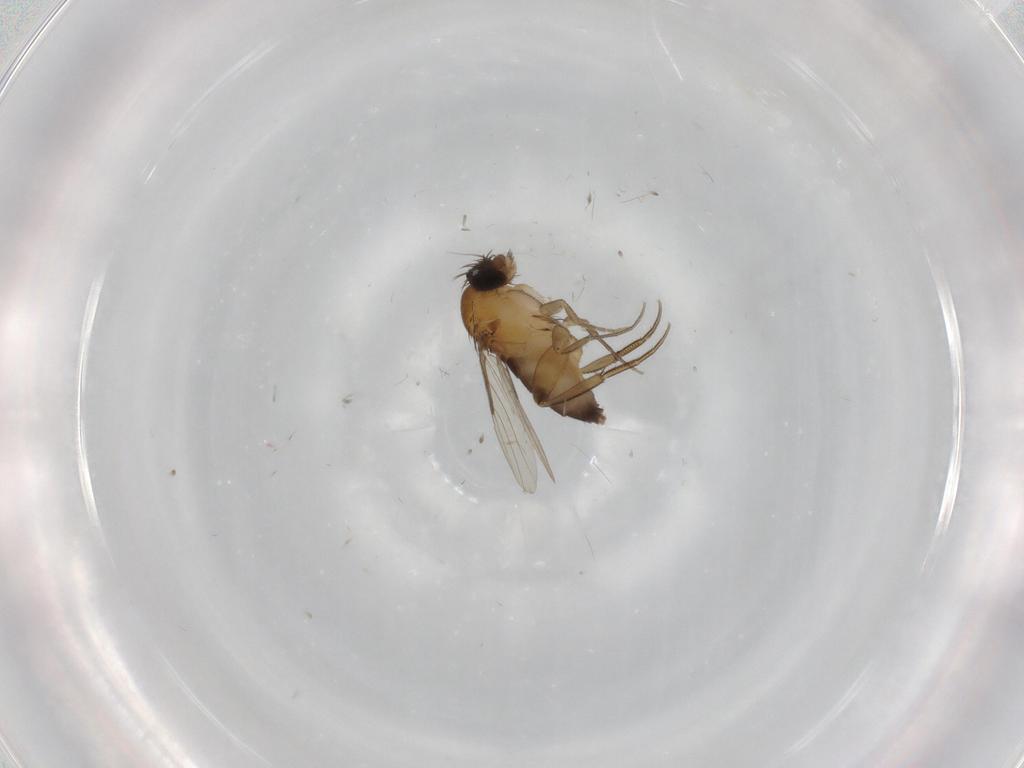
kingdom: Animalia
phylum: Arthropoda
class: Insecta
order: Diptera
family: Phoridae
